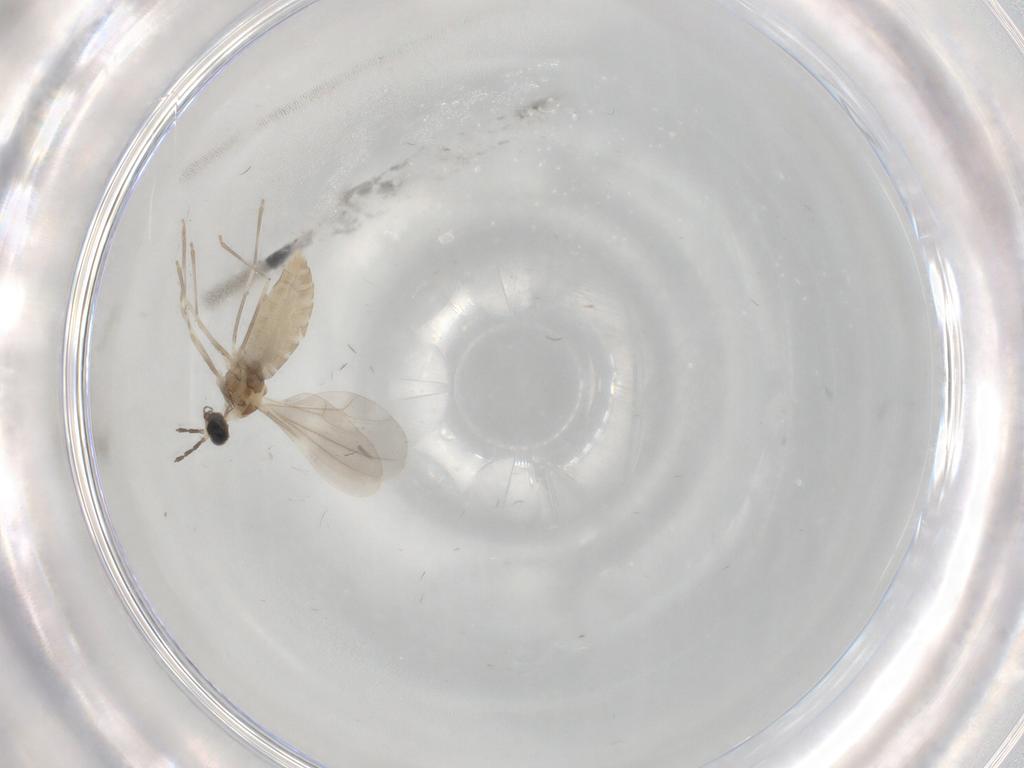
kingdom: Animalia
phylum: Arthropoda
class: Insecta
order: Diptera
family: Cecidomyiidae
